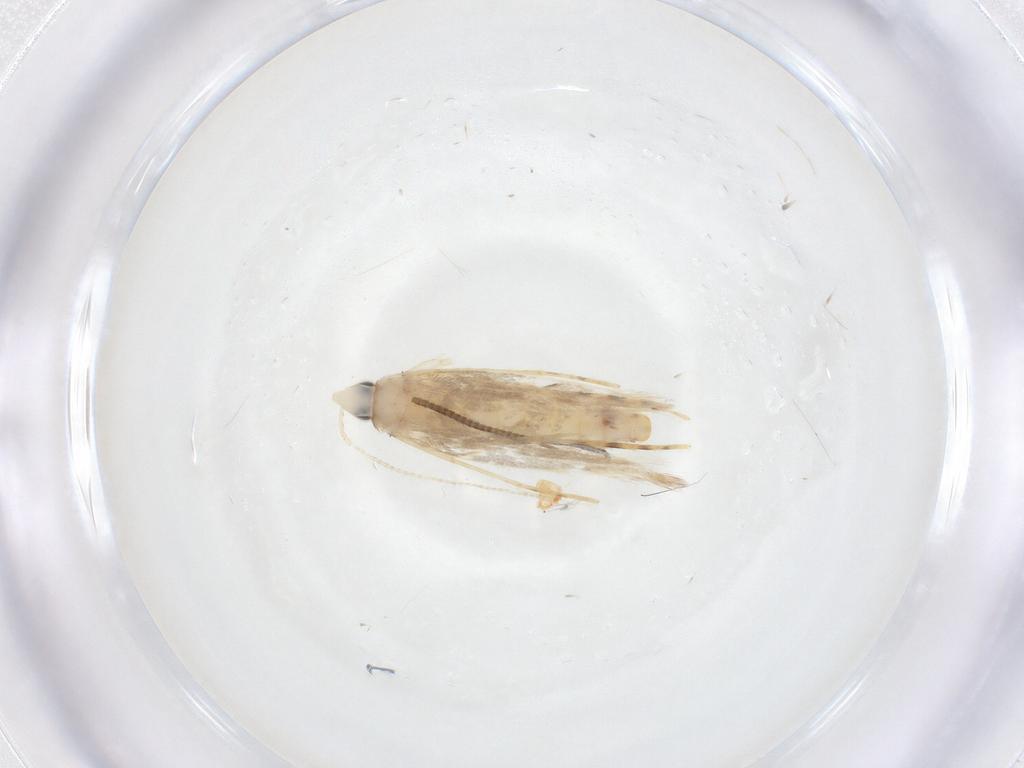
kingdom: Animalia
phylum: Arthropoda
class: Insecta
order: Lepidoptera
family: Tineidae
